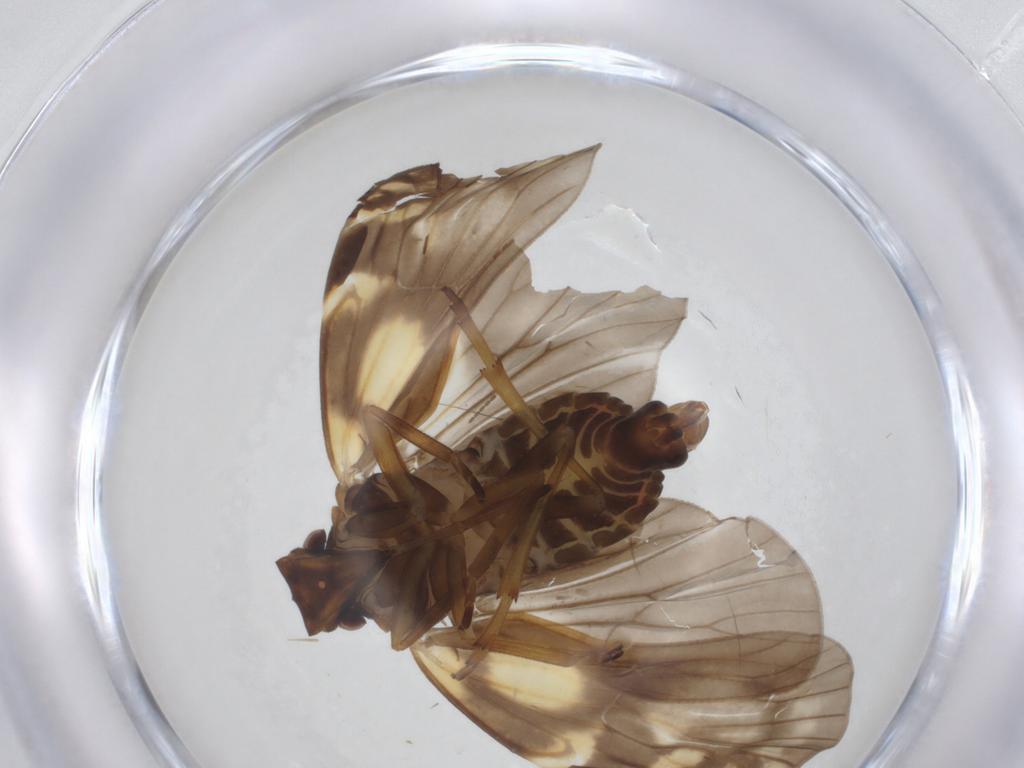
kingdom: Animalia
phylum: Arthropoda
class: Insecta
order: Hemiptera
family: Cixiidae
